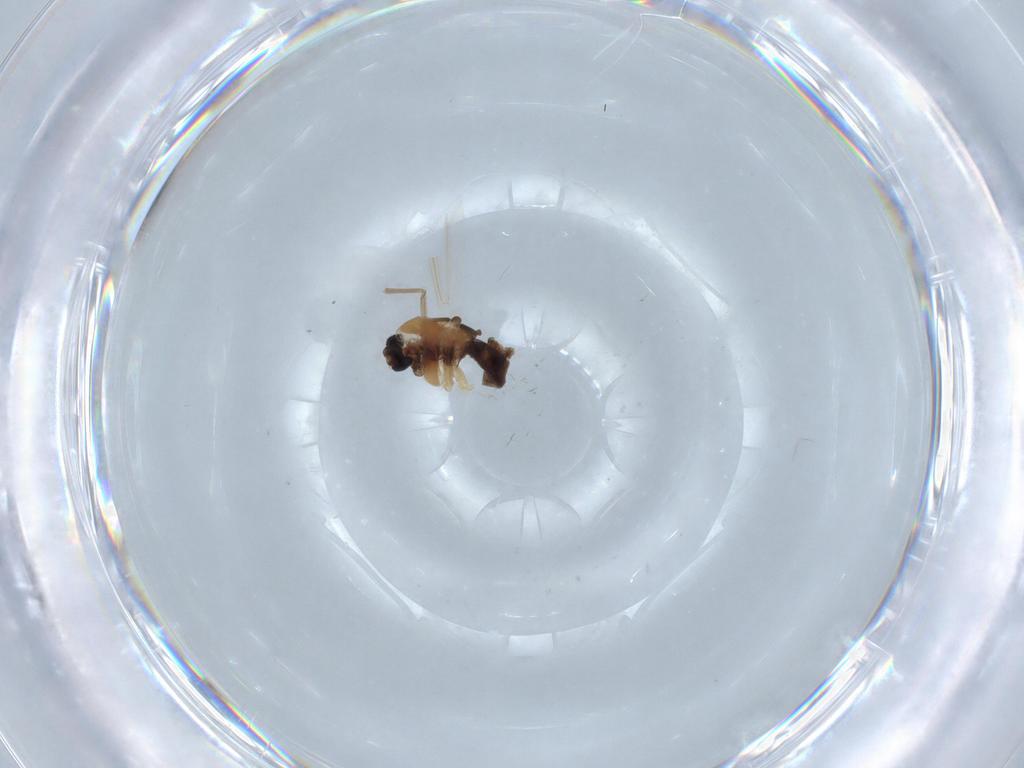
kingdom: Animalia
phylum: Arthropoda
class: Insecta
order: Diptera
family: Chironomidae
